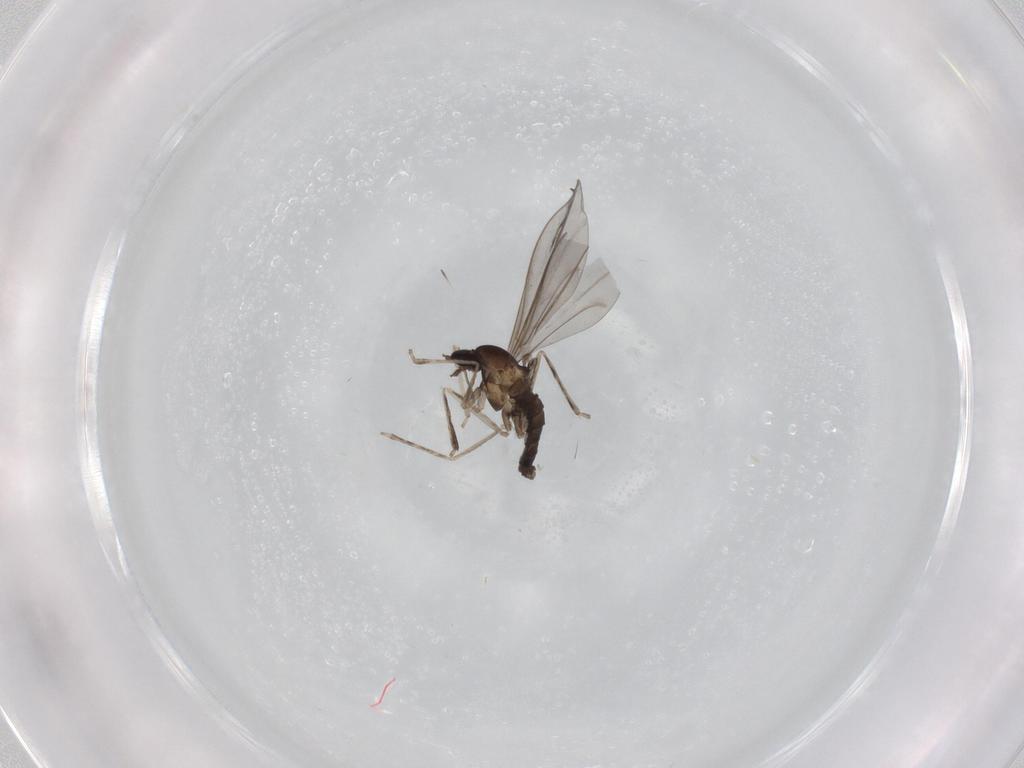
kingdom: Animalia
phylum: Arthropoda
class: Insecta
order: Diptera
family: Cecidomyiidae
